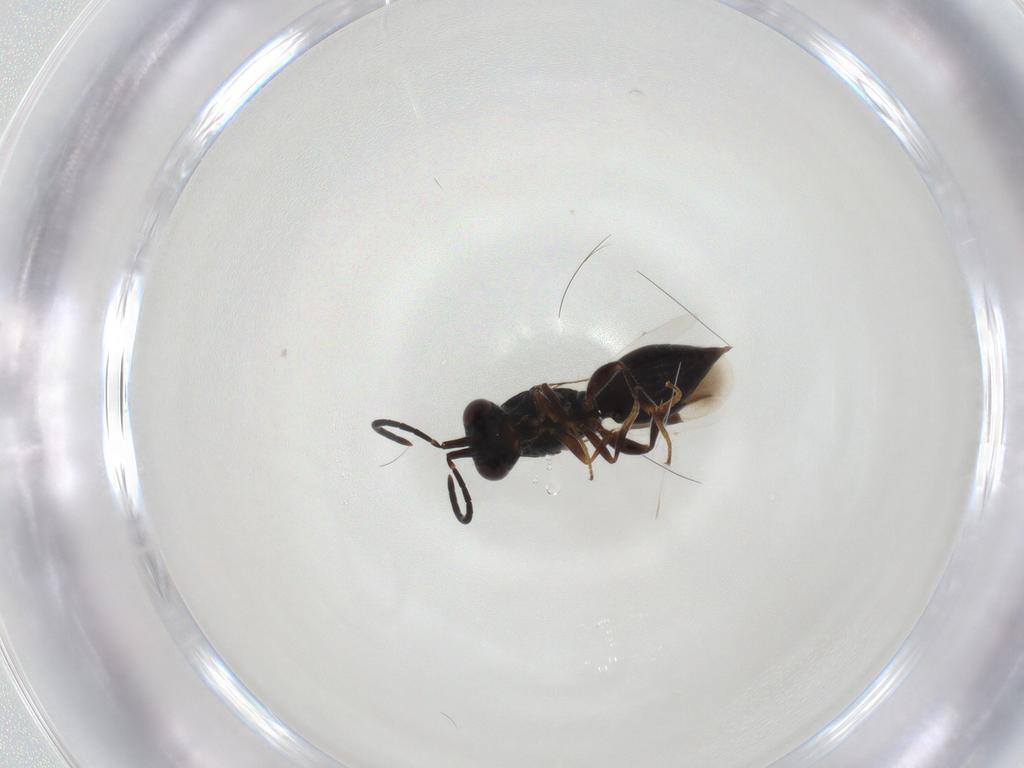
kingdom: Animalia
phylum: Arthropoda
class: Insecta
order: Hymenoptera
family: Megaspilidae
